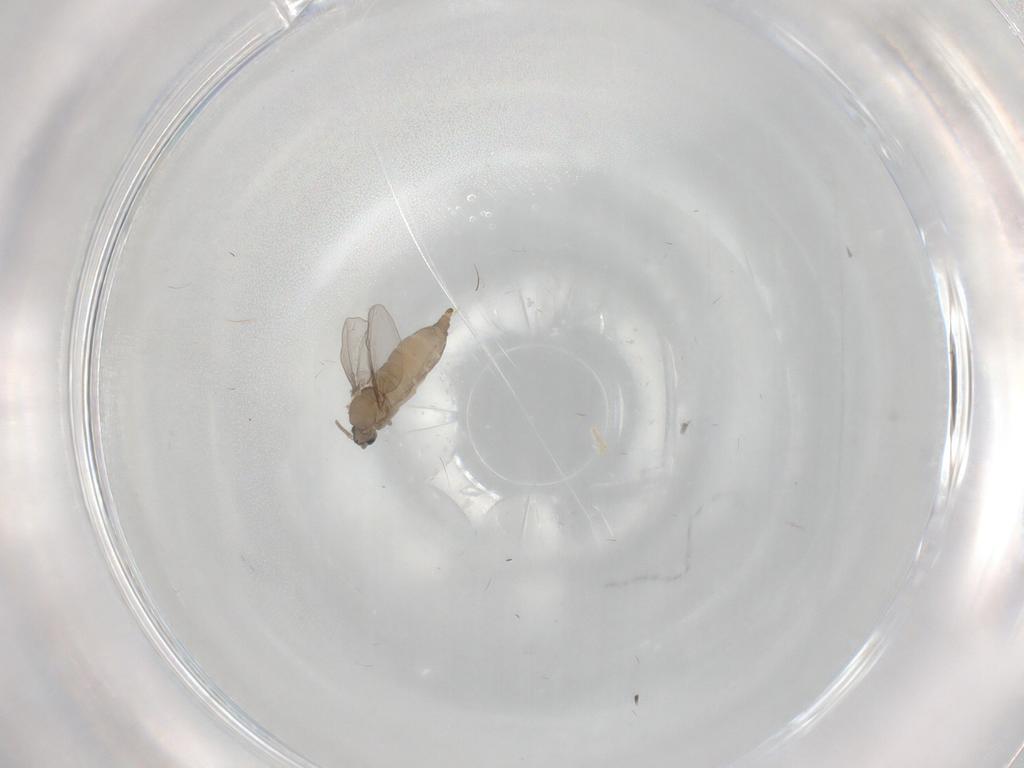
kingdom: Animalia
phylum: Arthropoda
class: Insecta
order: Diptera
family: Cecidomyiidae
